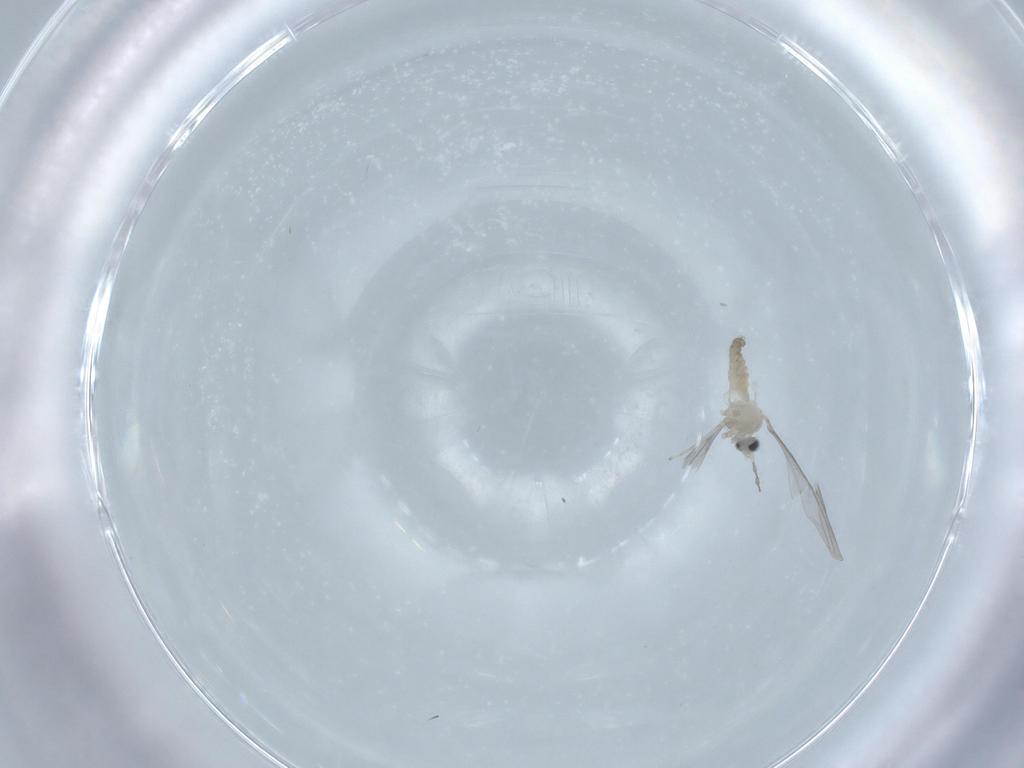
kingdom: Animalia
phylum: Arthropoda
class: Insecta
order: Diptera
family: Cecidomyiidae
